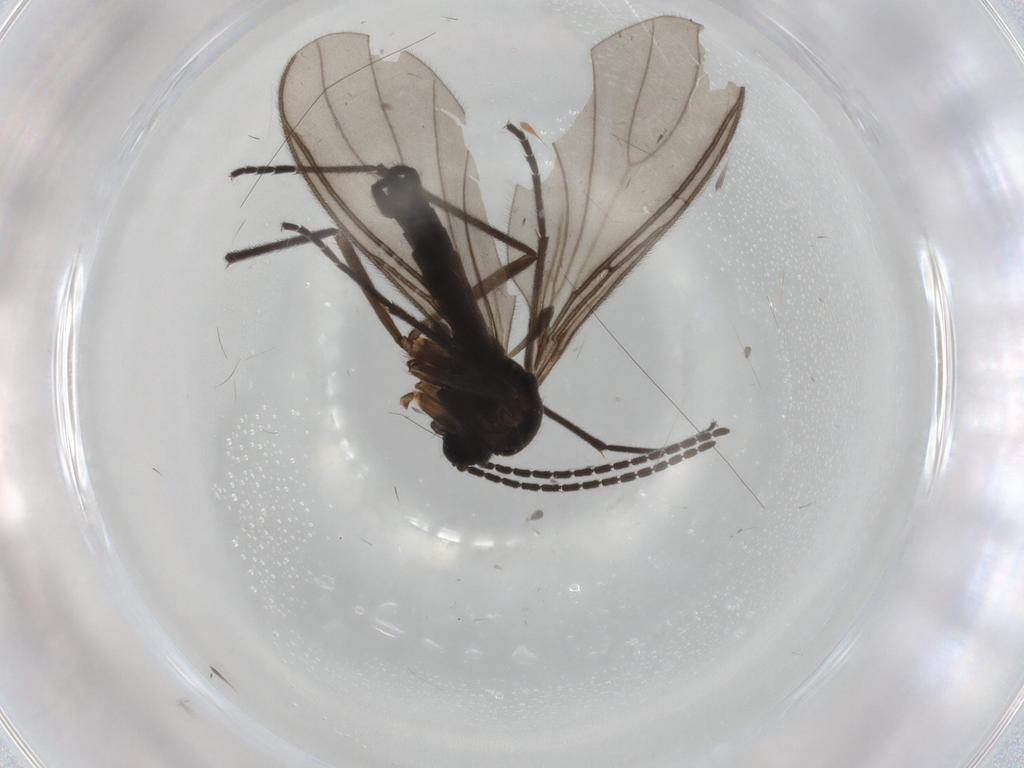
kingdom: Animalia
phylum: Arthropoda
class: Insecta
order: Diptera
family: Sciaridae
